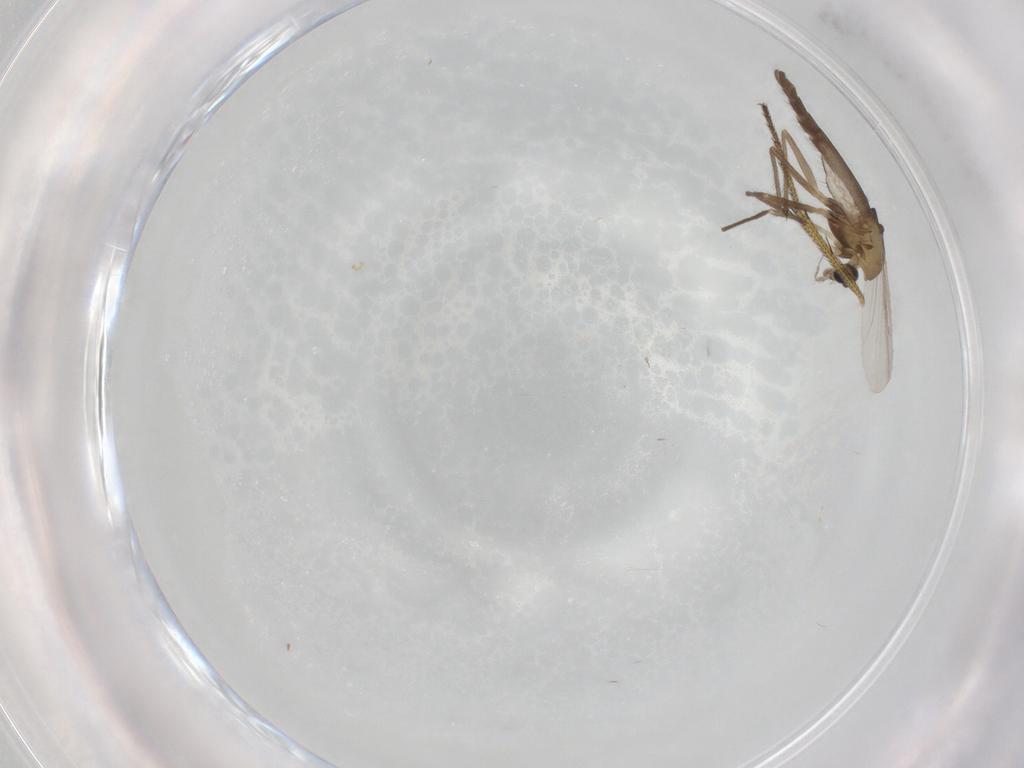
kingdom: Animalia
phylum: Arthropoda
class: Insecta
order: Diptera
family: Chironomidae
